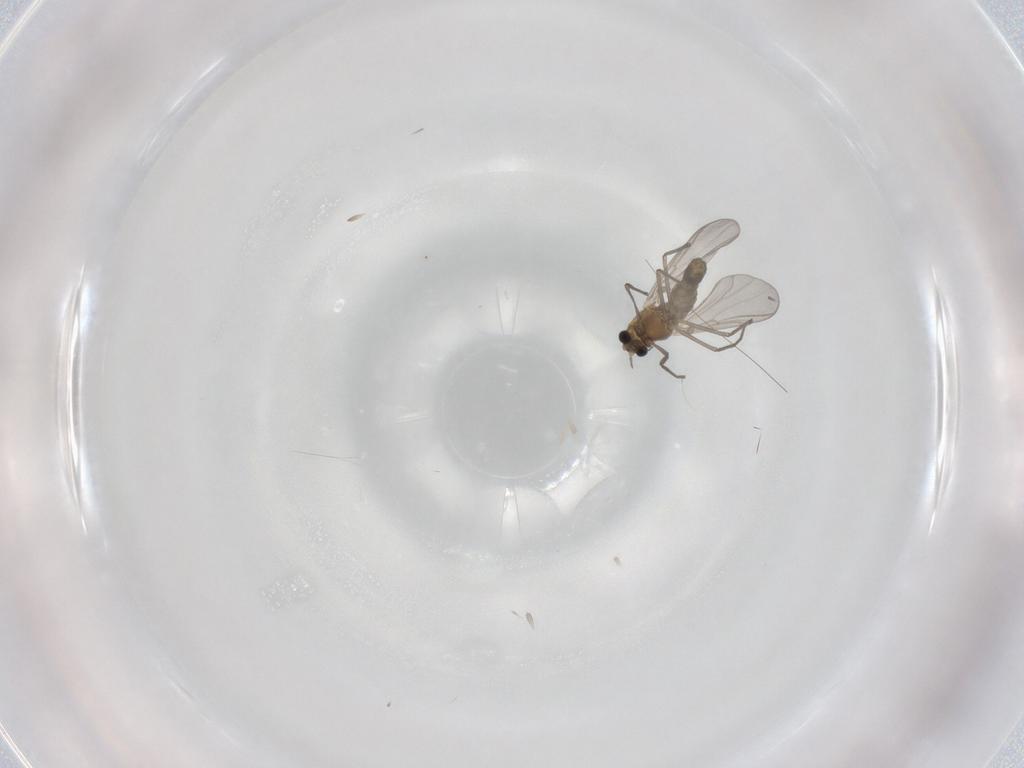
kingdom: Animalia
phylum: Arthropoda
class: Insecta
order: Diptera
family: Chironomidae
